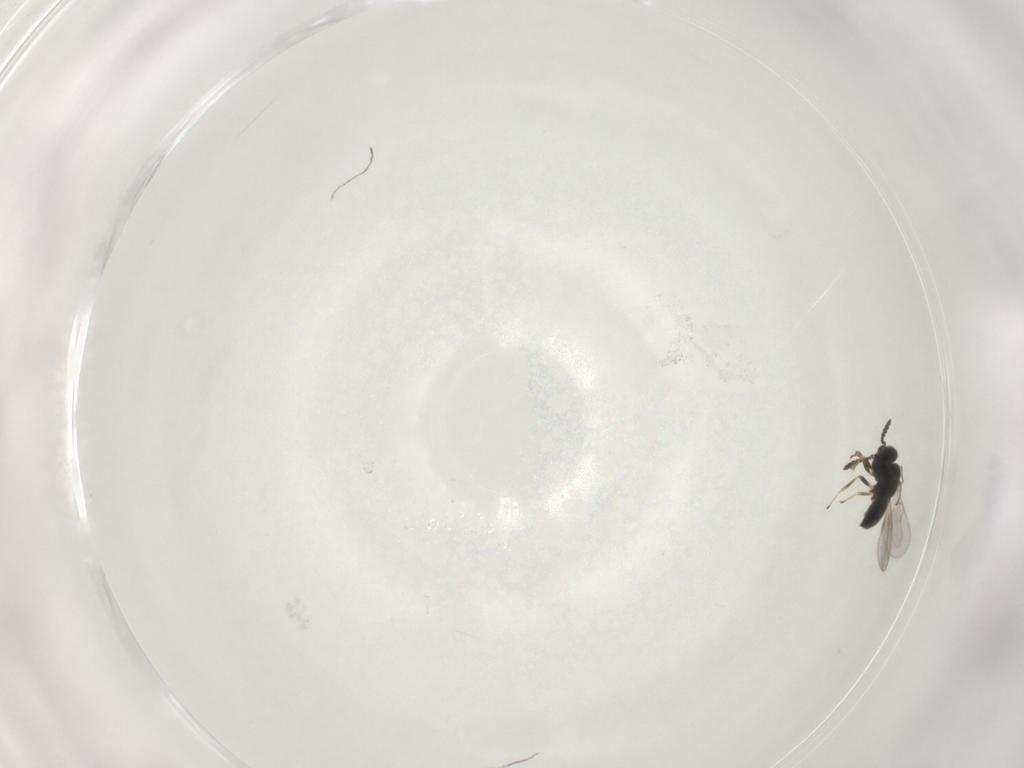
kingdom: Animalia
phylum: Arthropoda
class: Insecta
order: Hymenoptera
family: Scelionidae
